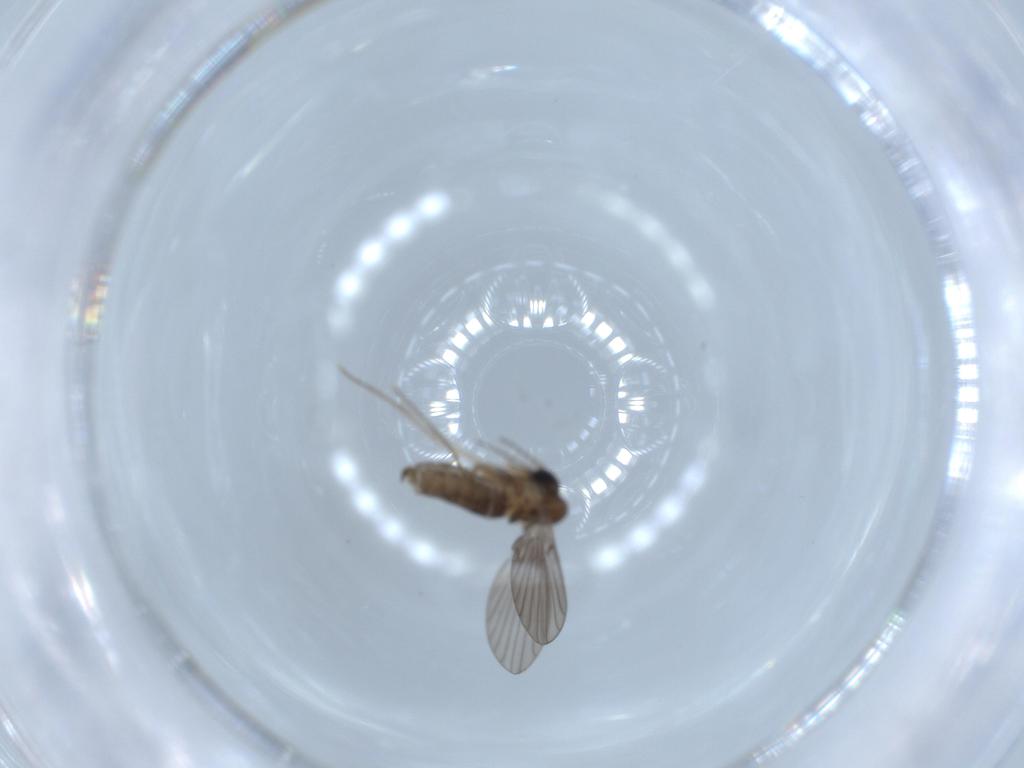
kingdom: Animalia
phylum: Arthropoda
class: Insecta
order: Diptera
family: Psychodidae
